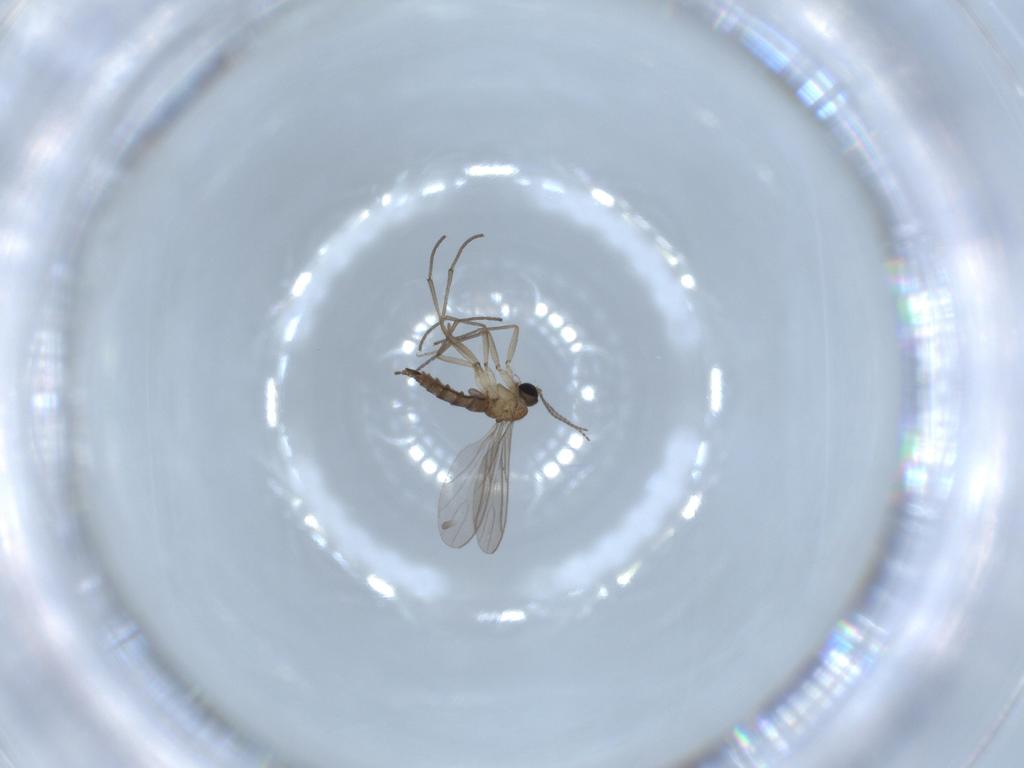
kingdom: Animalia
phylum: Arthropoda
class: Insecta
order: Diptera
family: Sciaridae
